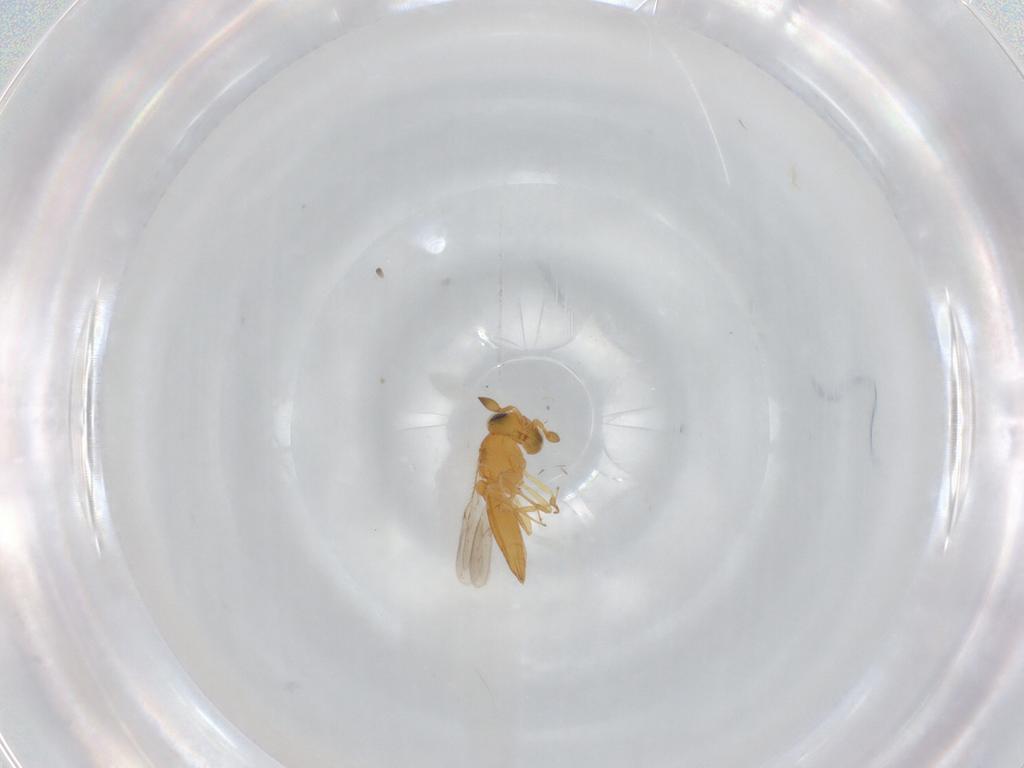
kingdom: Animalia
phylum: Arthropoda
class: Insecta
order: Hymenoptera
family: Scelionidae
